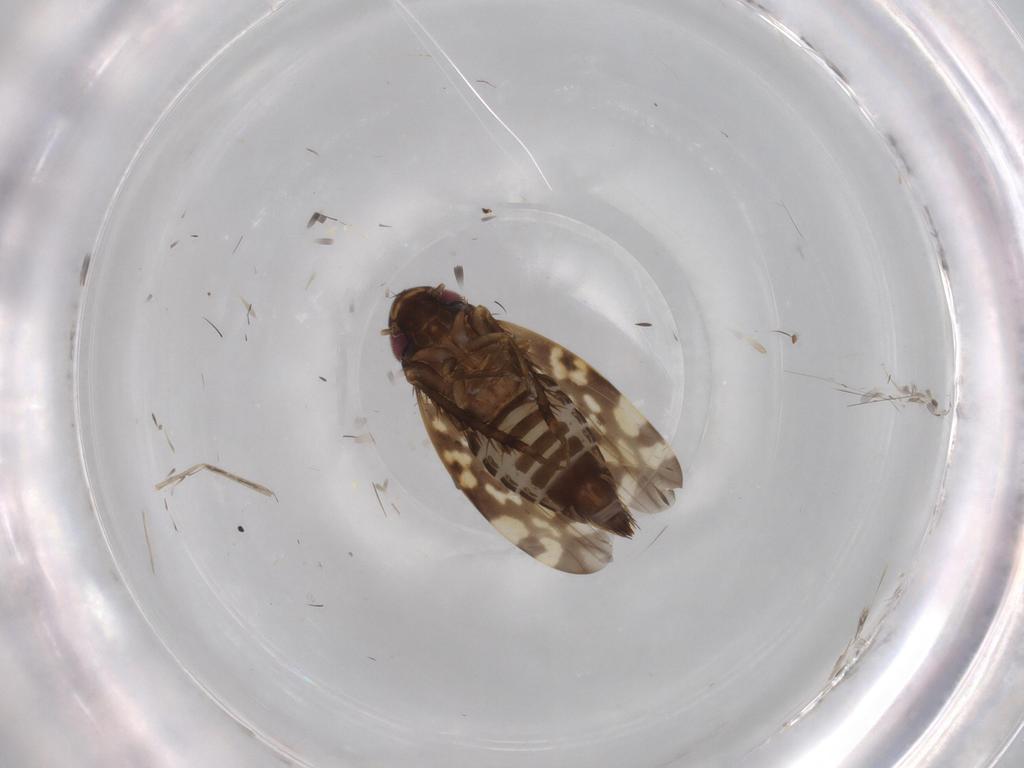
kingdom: Animalia
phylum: Arthropoda
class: Insecta
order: Hemiptera
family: Cicadellidae
